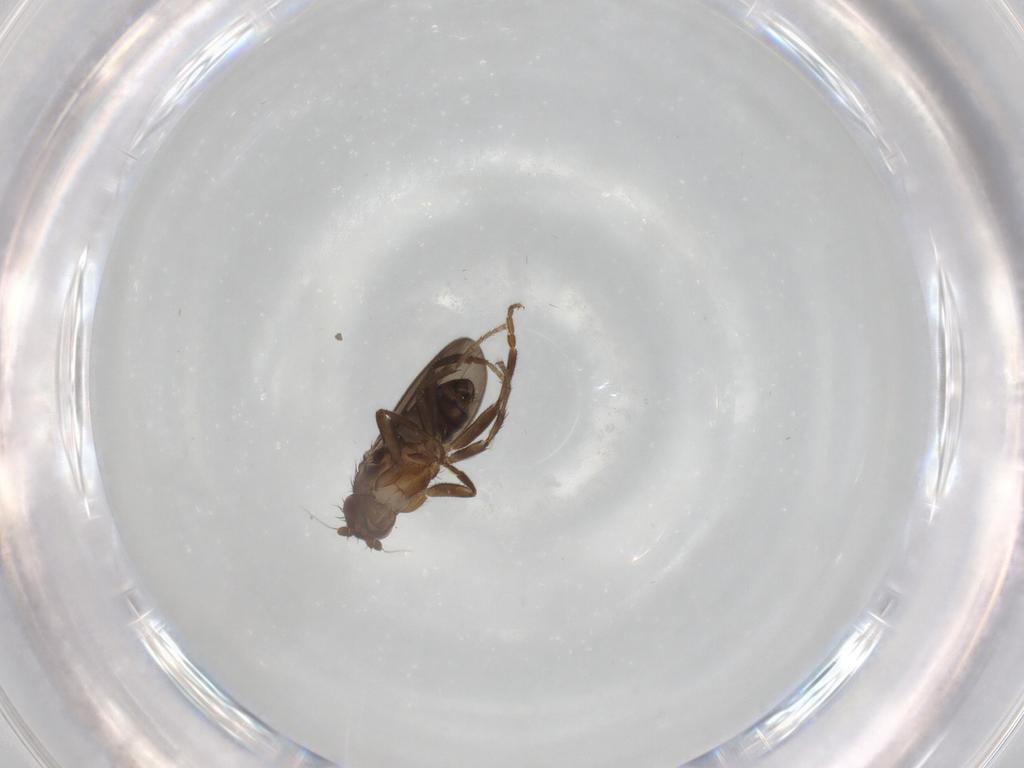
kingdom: Animalia
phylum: Arthropoda
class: Insecta
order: Diptera
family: Sphaeroceridae
